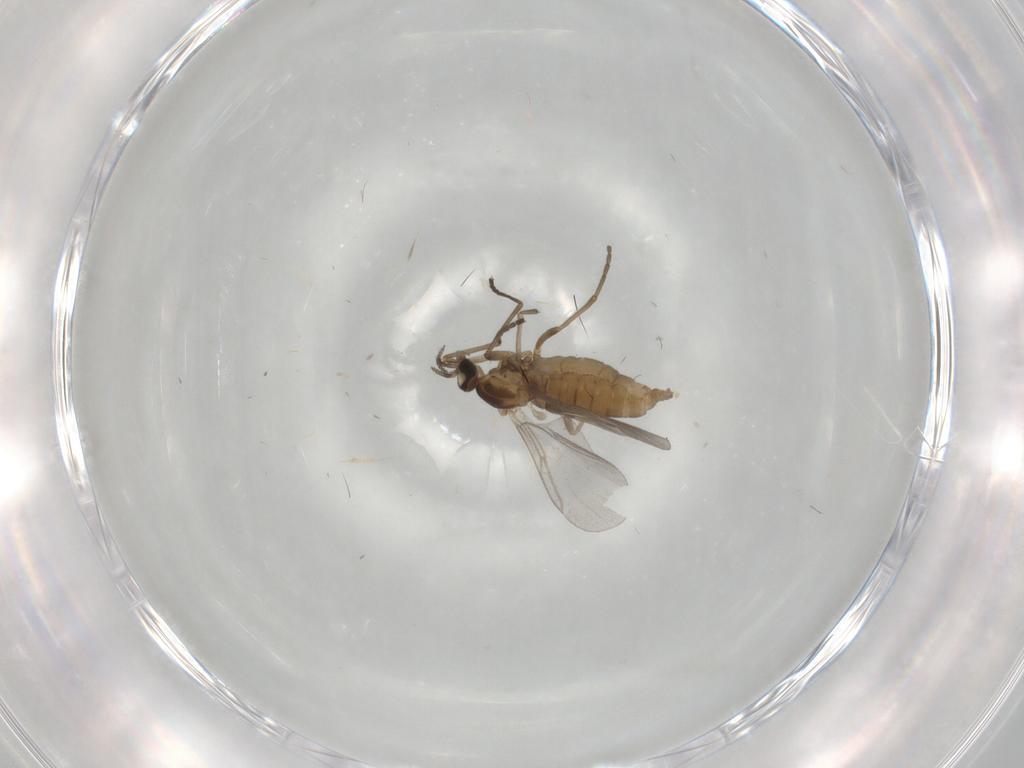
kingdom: Animalia
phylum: Arthropoda
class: Insecta
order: Diptera
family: Cecidomyiidae
